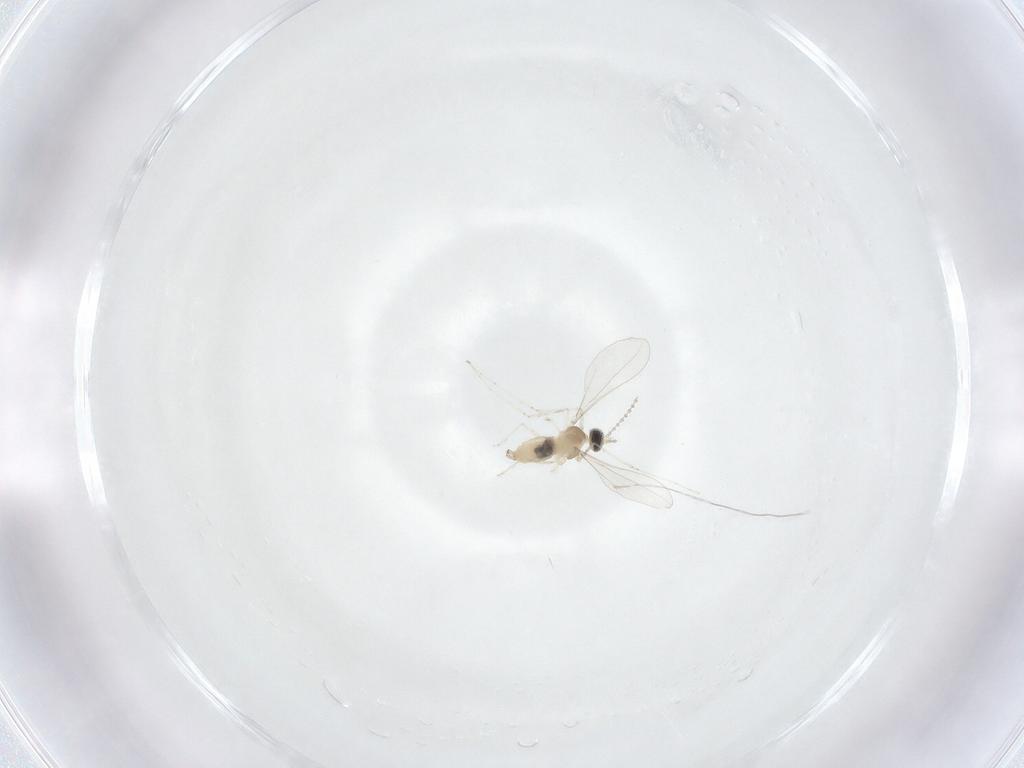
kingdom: Animalia
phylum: Arthropoda
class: Insecta
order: Diptera
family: Cecidomyiidae
